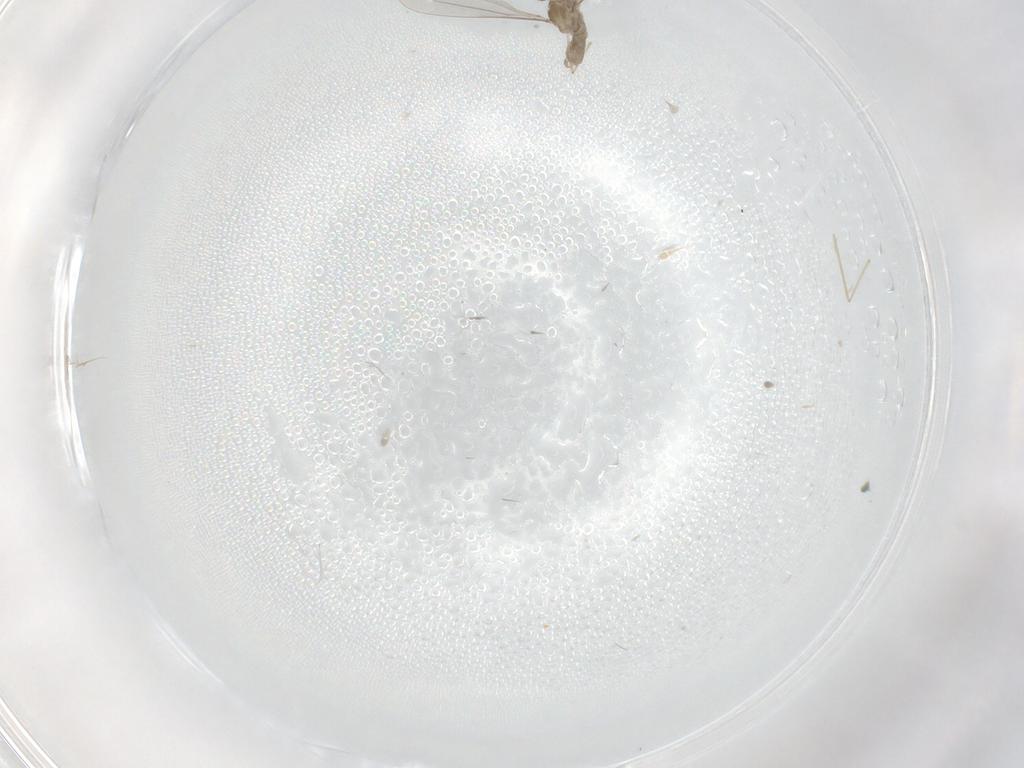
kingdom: Animalia
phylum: Arthropoda
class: Insecta
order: Diptera
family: Cecidomyiidae
